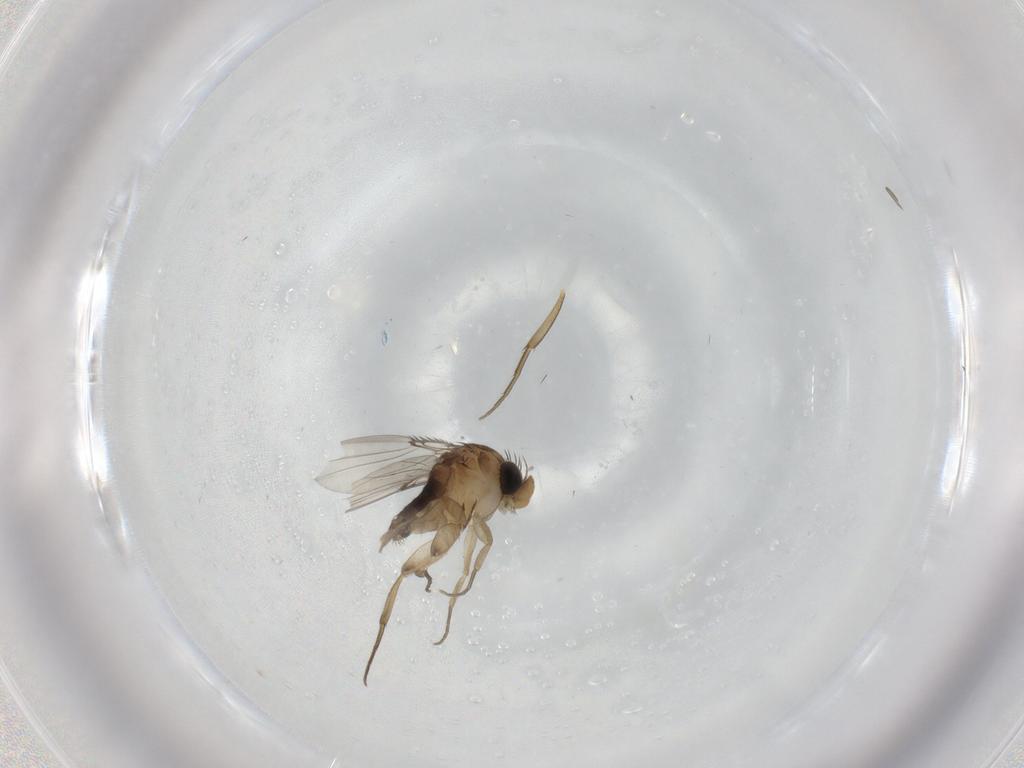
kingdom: Animalia
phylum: Arthropoda
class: Insecta
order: Diptera
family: Phoridae
